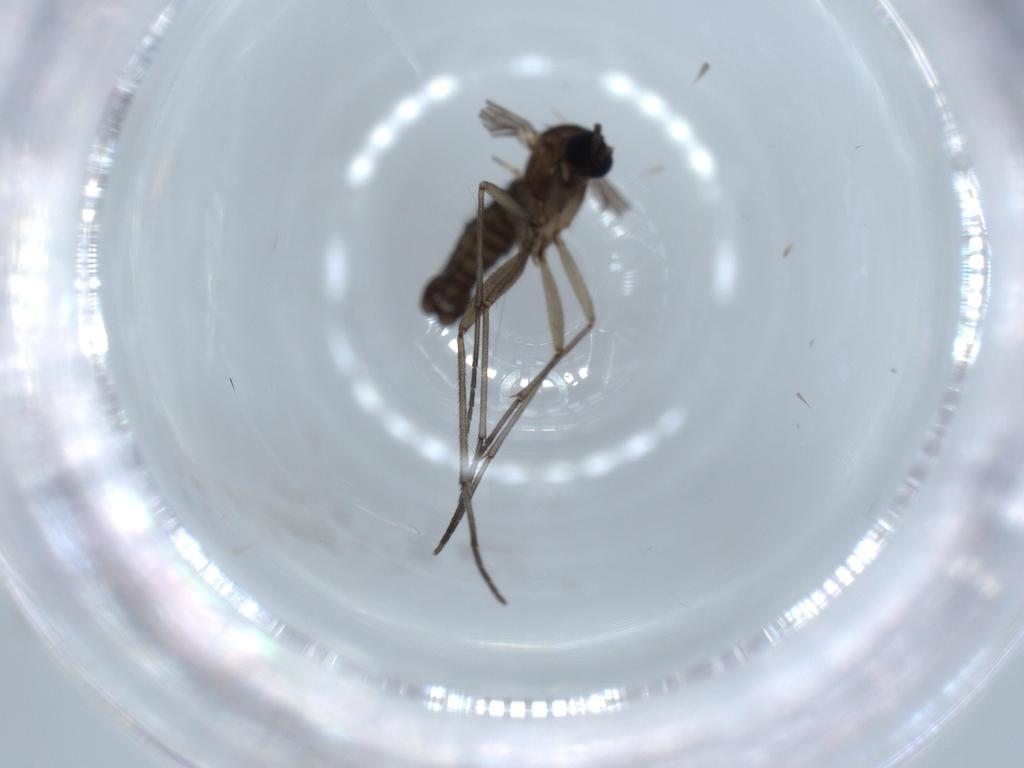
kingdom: Animalia
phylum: Arthropoda
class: Insecta
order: Diptera
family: Sciaridae
